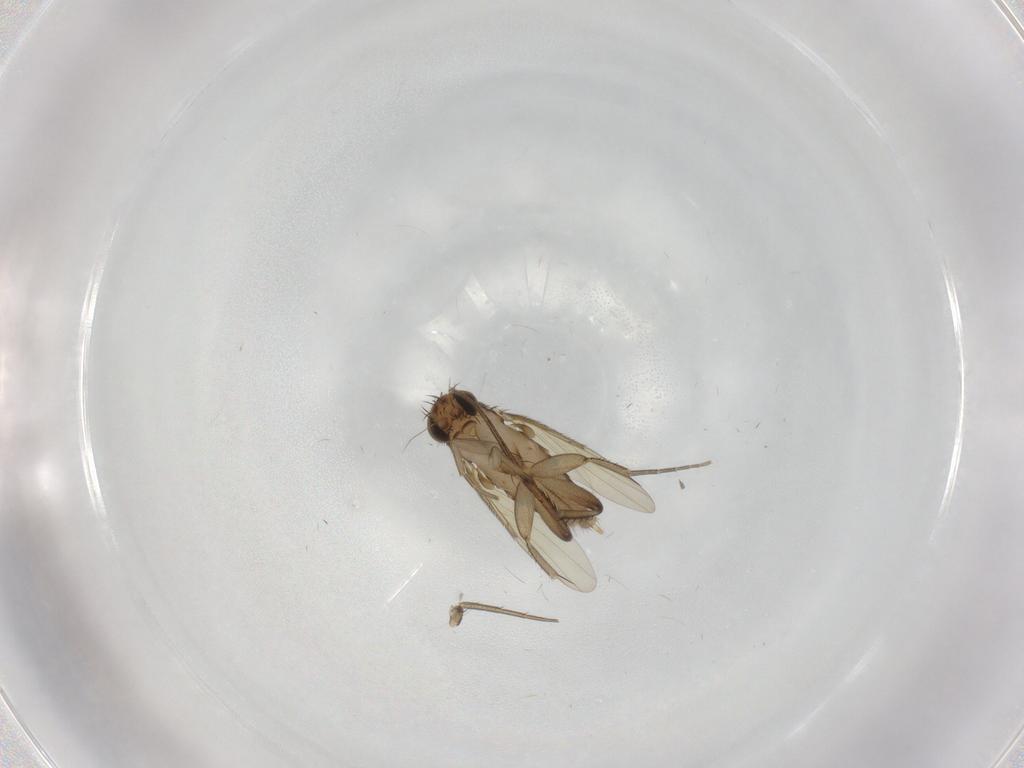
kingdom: Animalia
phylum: Arthropoda
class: Insecta
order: Diptera
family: Phoridae
